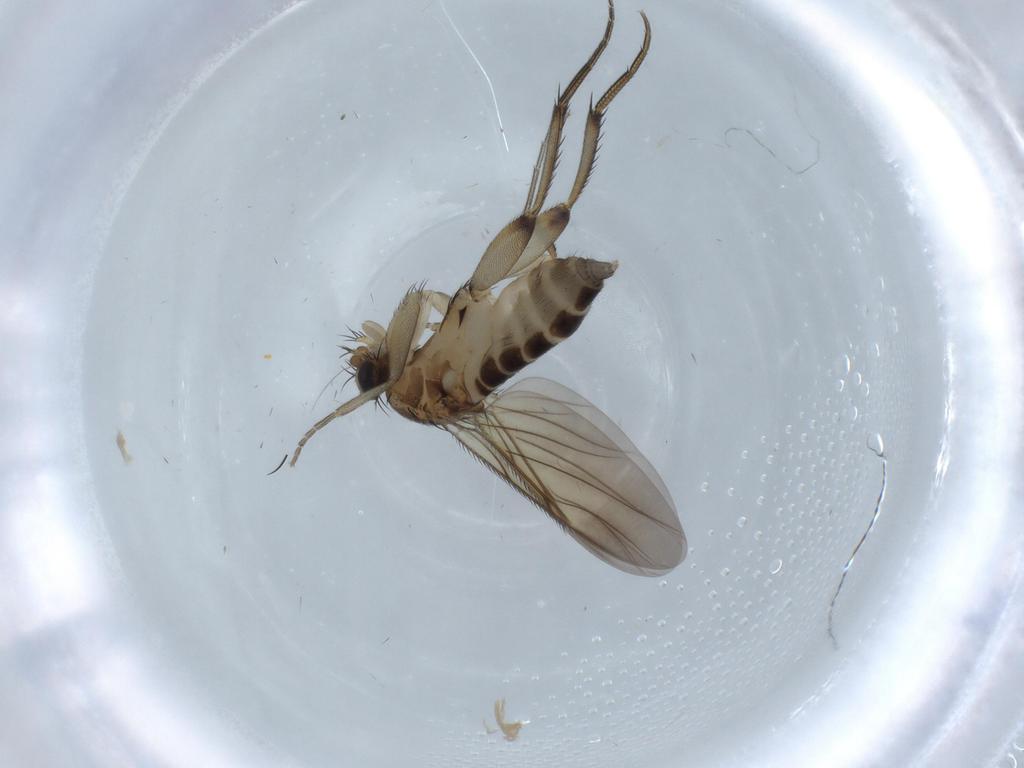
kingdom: Animalia
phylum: Arthropoda
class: Insecta
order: Diptera
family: Phoridae
